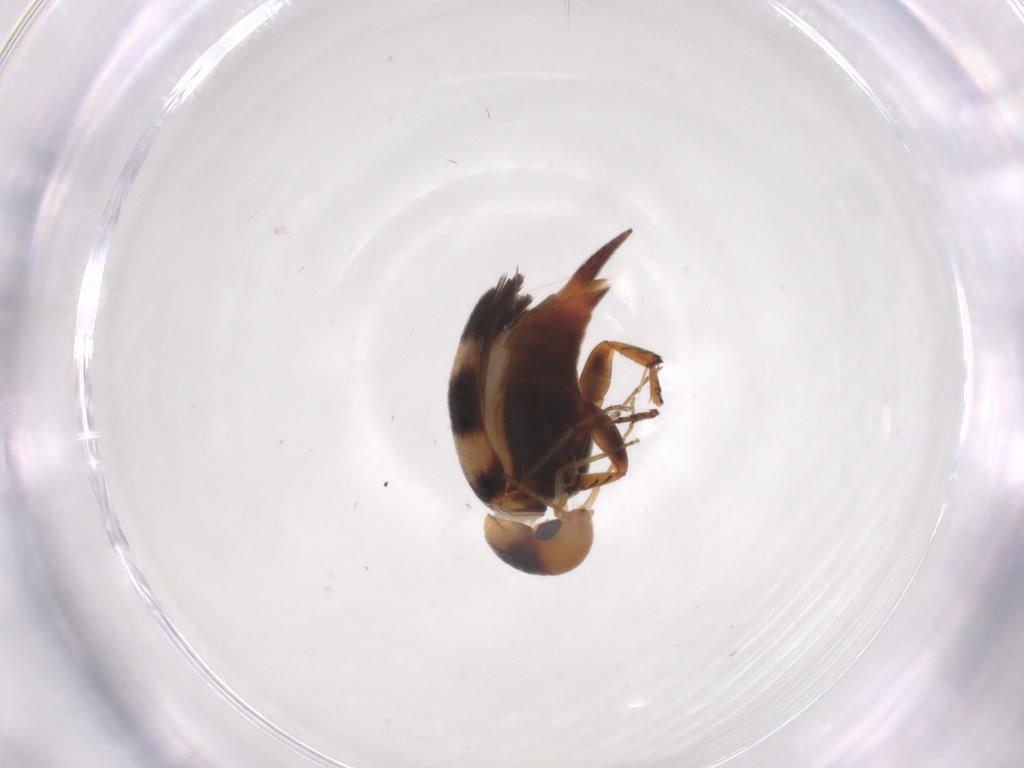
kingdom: Animalia
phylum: Arthropoda
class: Insecta
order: Coleoptera
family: Mordellidae
